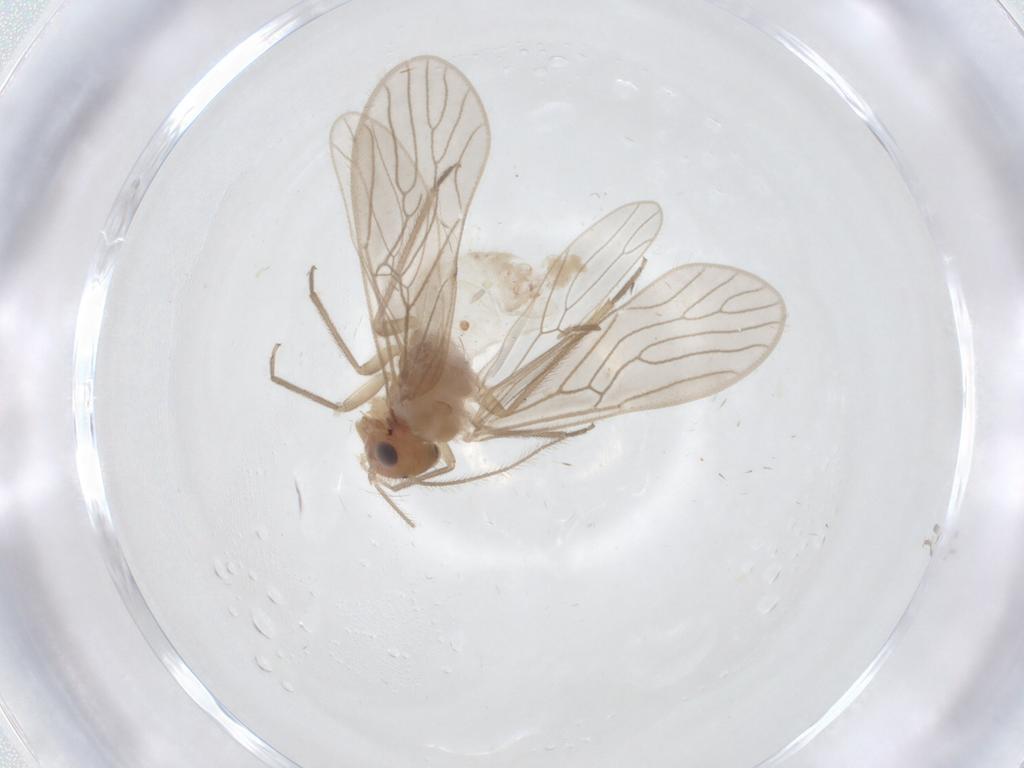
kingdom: Animalia
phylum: Arthropoda
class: Insecta
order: Psocodea
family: Epipsocidae
